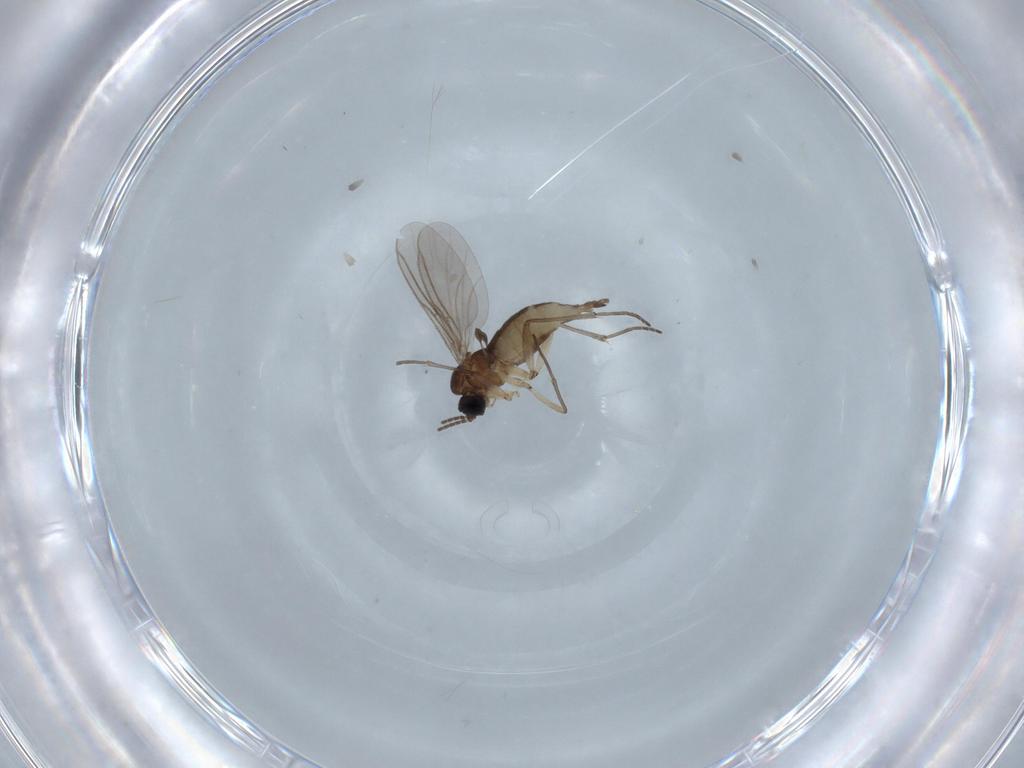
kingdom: Animalia
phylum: Arthropoda
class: Insecta
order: Diptera
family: Sciaridae
